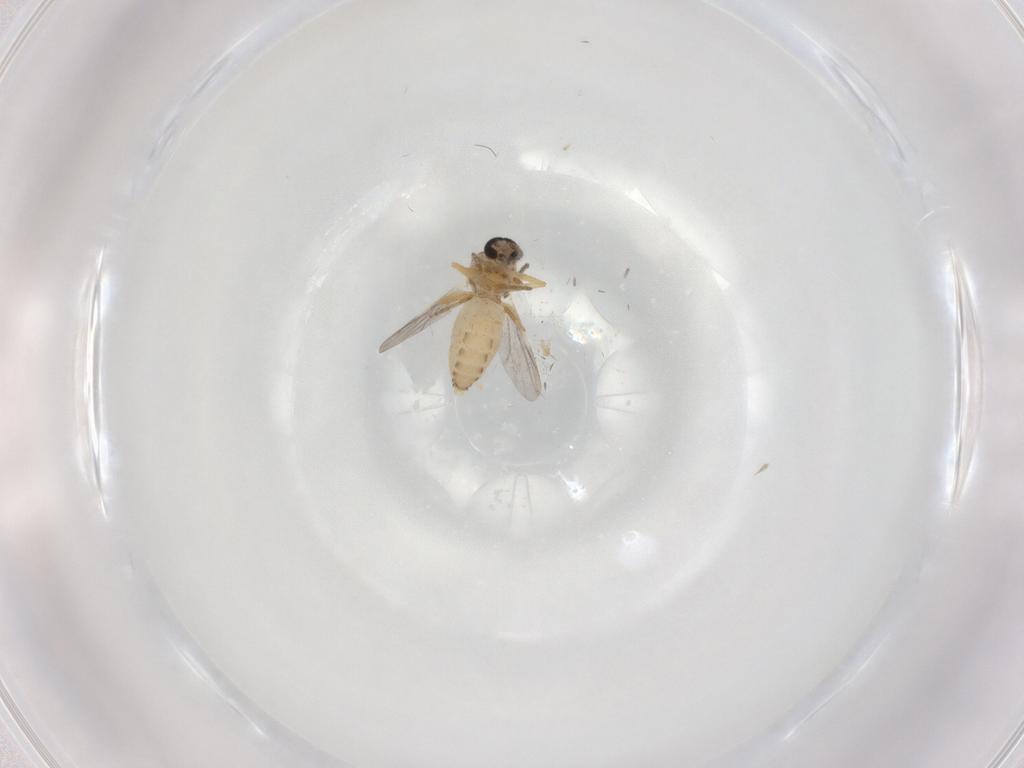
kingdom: Animalia
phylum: Arthropoda
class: Insecta
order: Diptera
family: Ceratopogonidae
